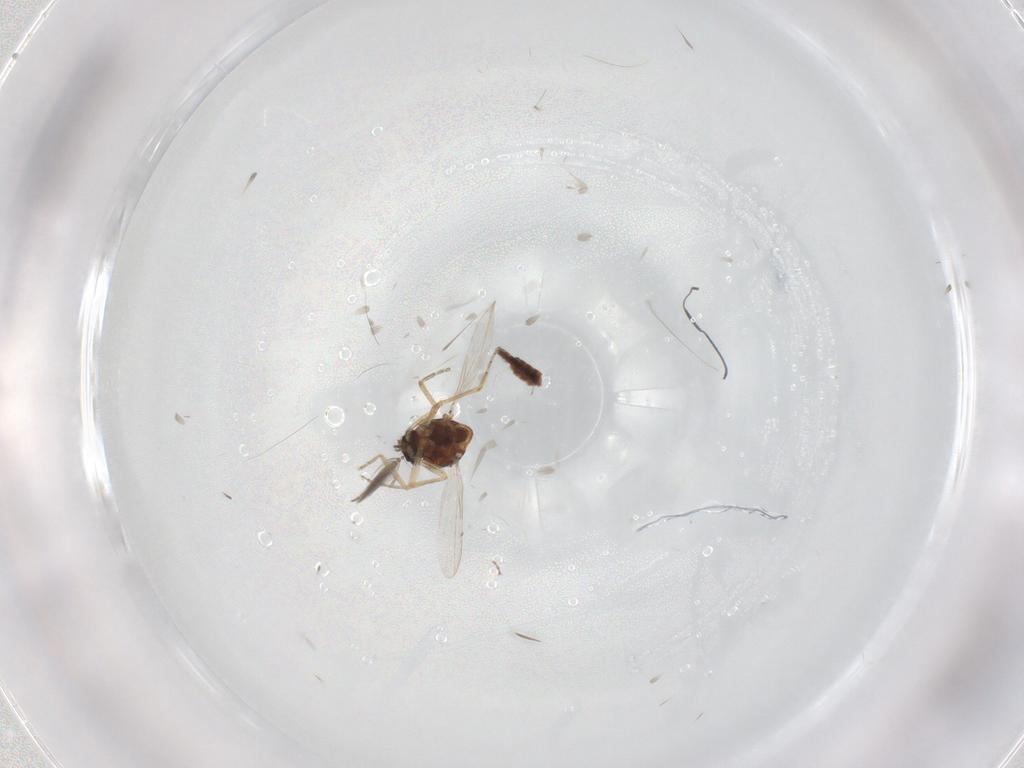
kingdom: Animalia
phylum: Arthropoda
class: Insecta
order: Diptera
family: Ceratopogonidae
